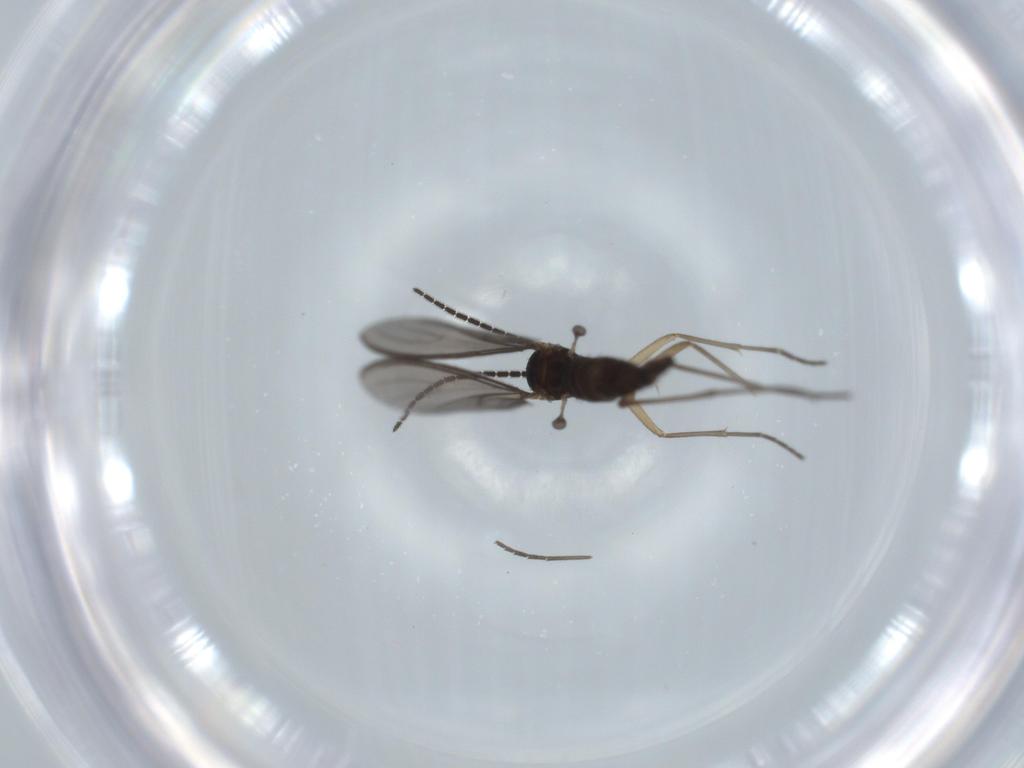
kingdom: Animalia
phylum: Arthropoda
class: Insecta
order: Diptera
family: Sciaridae
